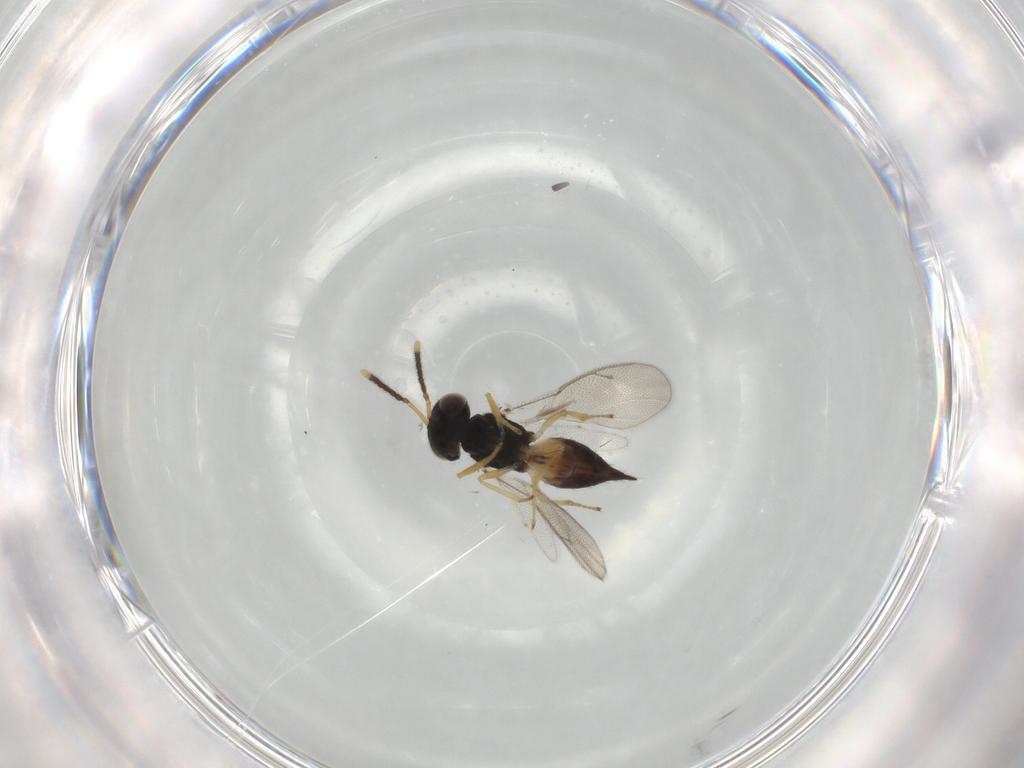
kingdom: Animalia
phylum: Arthropoda
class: Insecta
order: Hymenoptera
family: Pteromalidae
